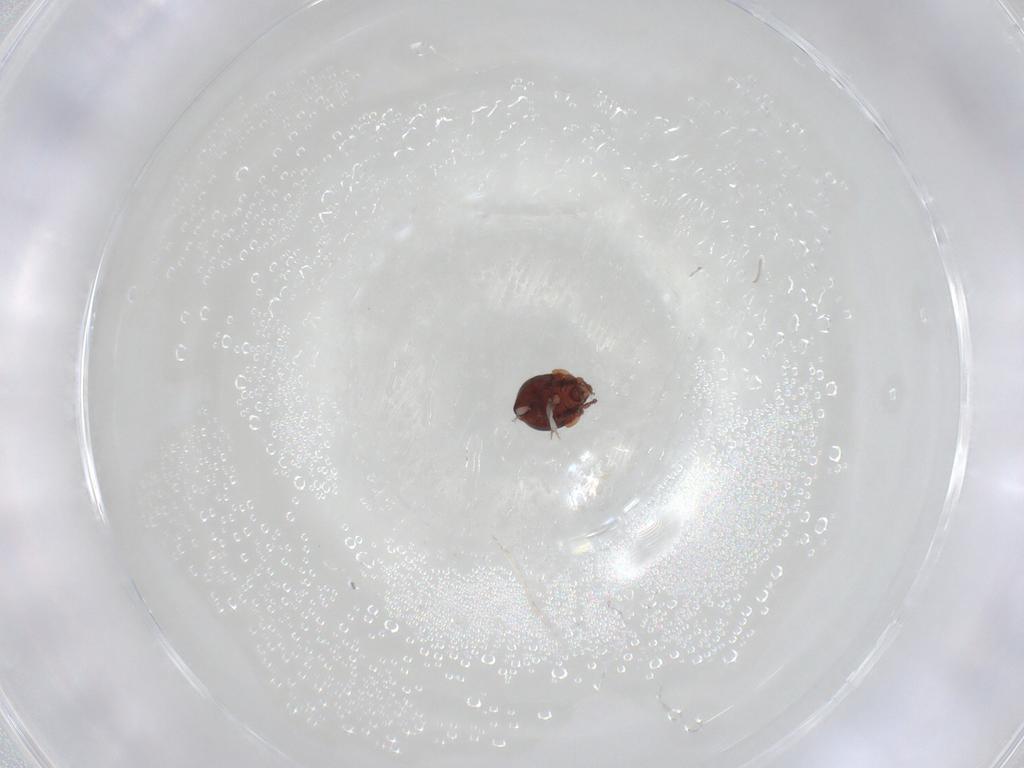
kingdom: Animalia
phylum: Arthropoda
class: Arachnida
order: Sarcoptiformes
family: Humerobatidae
